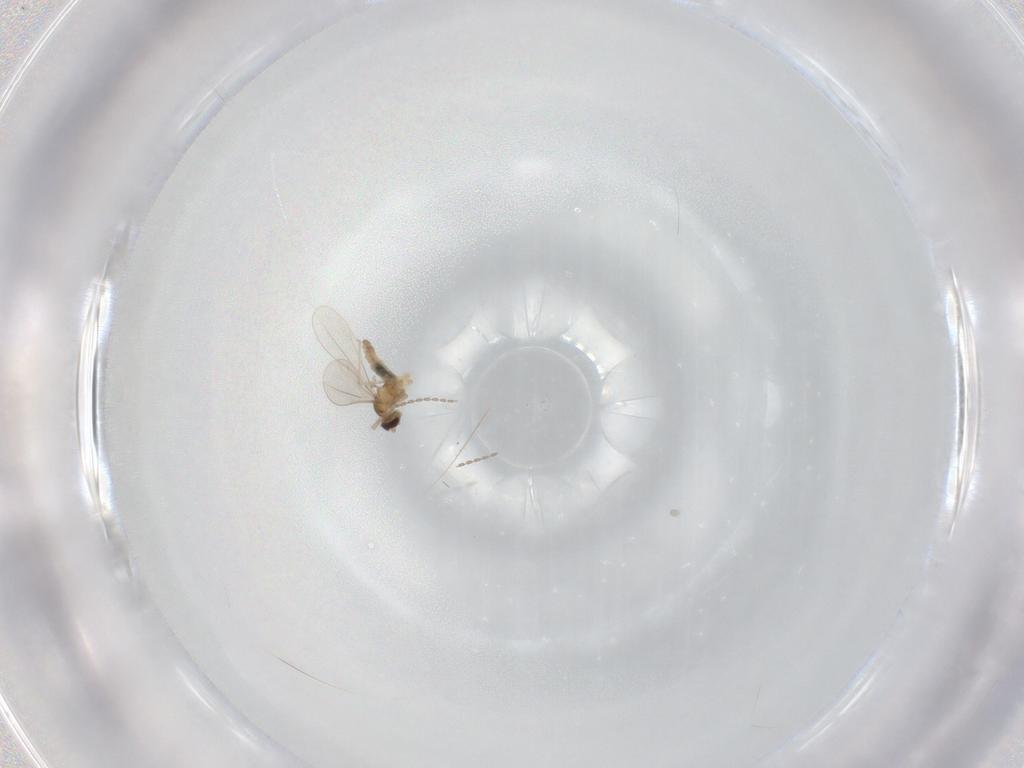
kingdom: Animalia
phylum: Arthropoda
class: Insecta
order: Diptera
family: Cecidomyiidae
